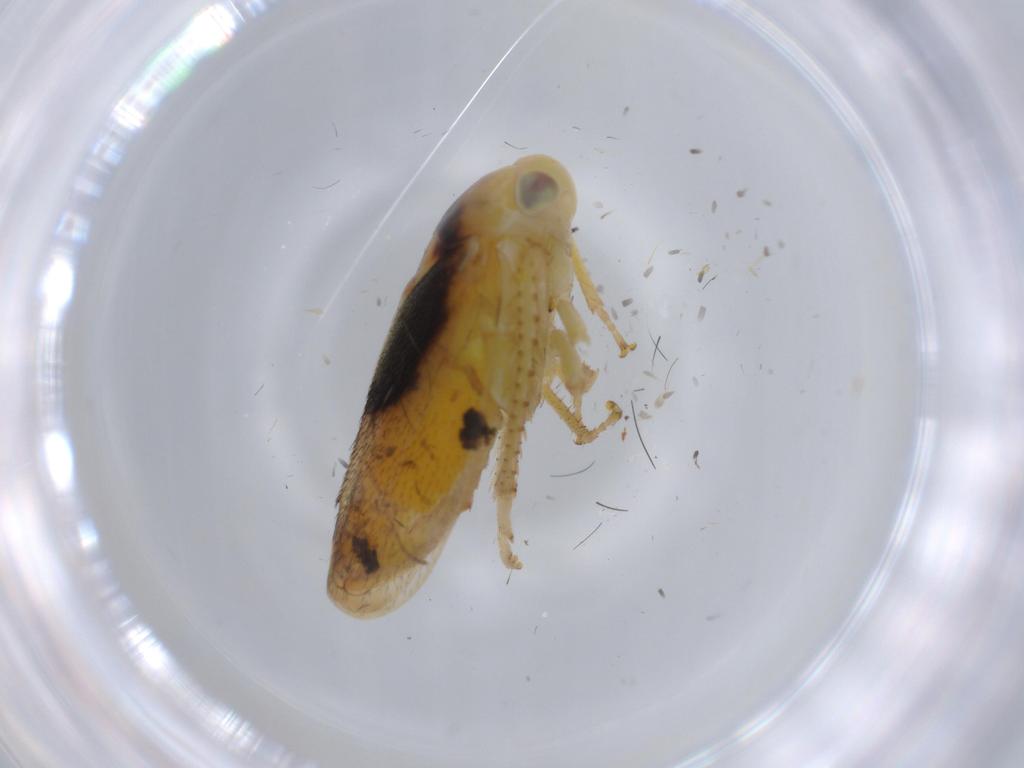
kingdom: Animalia
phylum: Arthropoda
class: Insecta
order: Hemiptera
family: Cicadellidae
